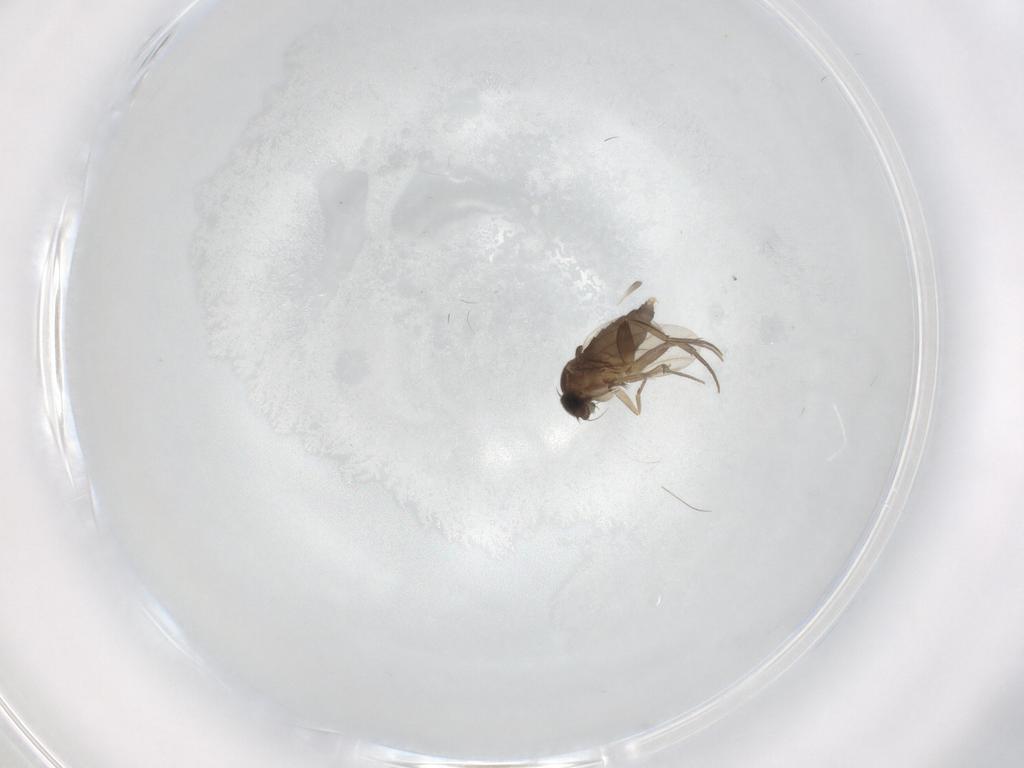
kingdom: Animalia
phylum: Arthropoda
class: Insecta
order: Diptera
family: Phoridae
